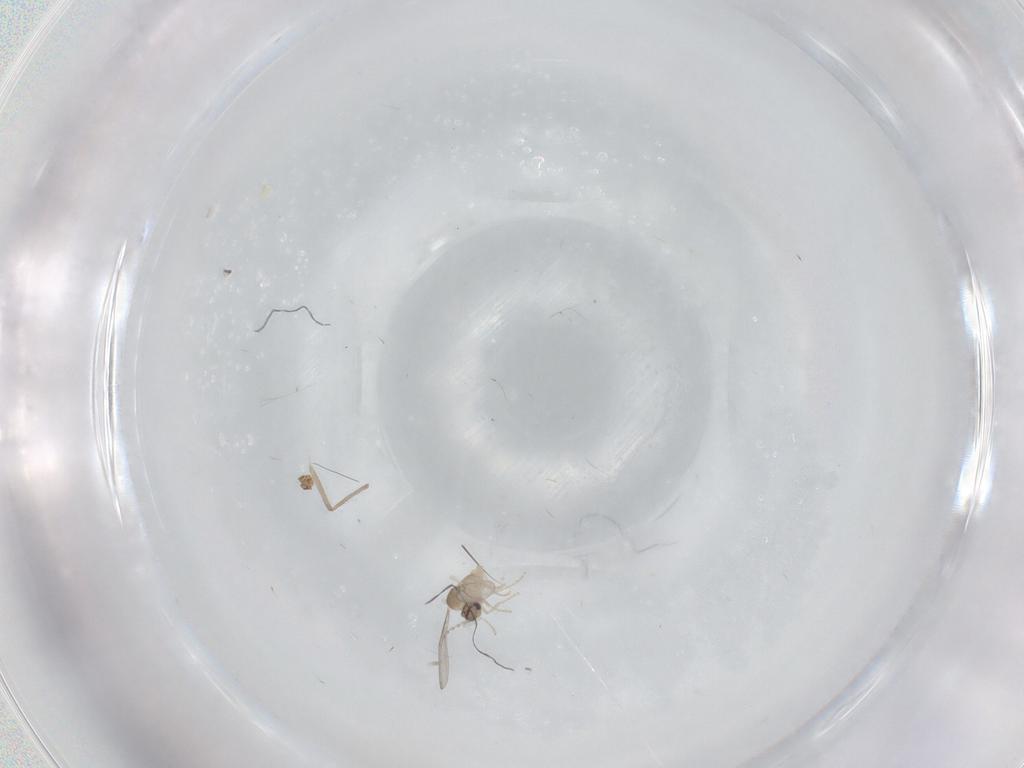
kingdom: Animalia
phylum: Arthropoda
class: Insecta
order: Diptera
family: Cecidomyiidae
